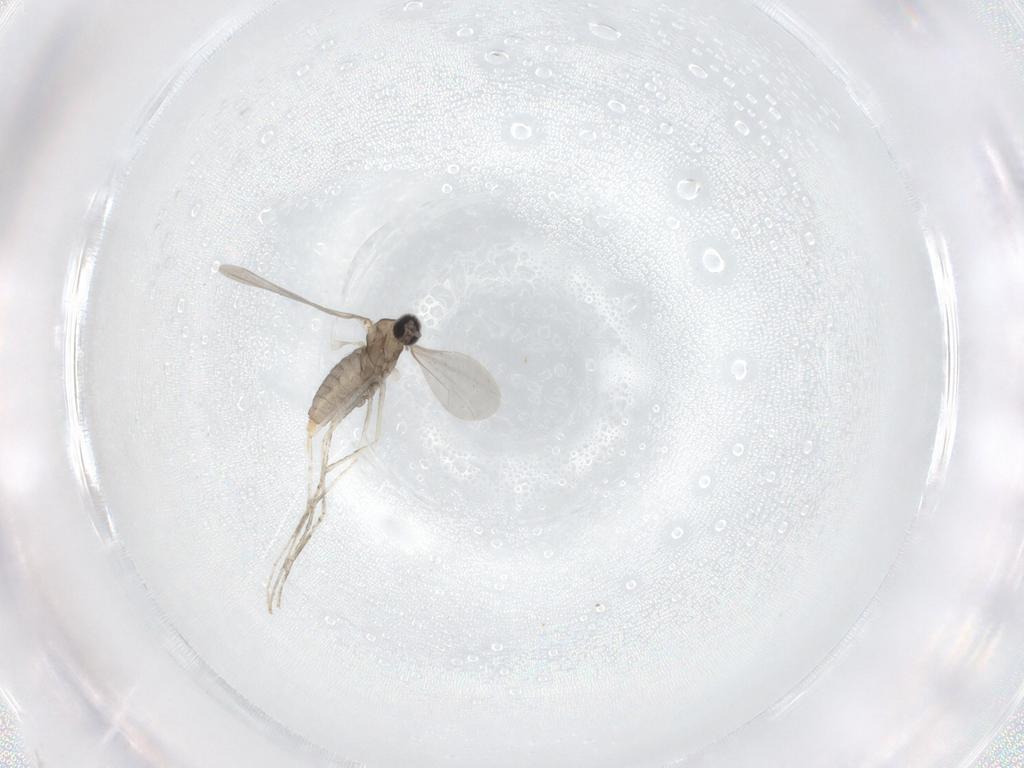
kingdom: Animalia
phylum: Arthropoda
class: Insecta
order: Diptera
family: Cecidomyiidae
